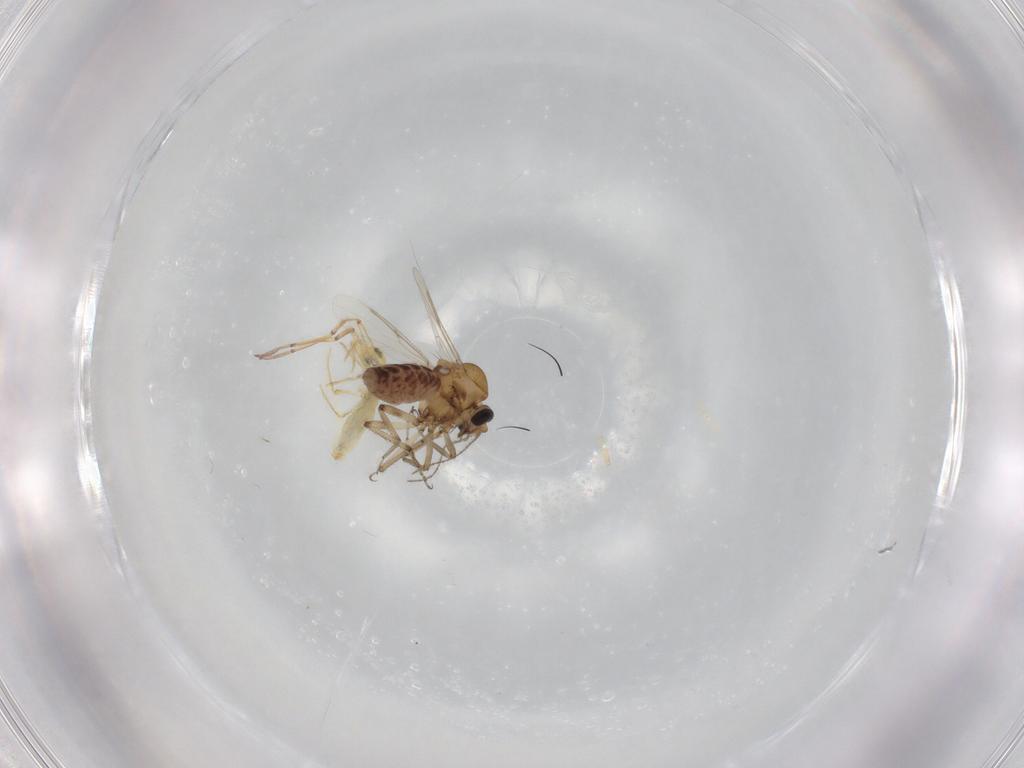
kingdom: Animalia
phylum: Arthropoda
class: Insecta
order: Diptera
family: Ceratopogonidae
